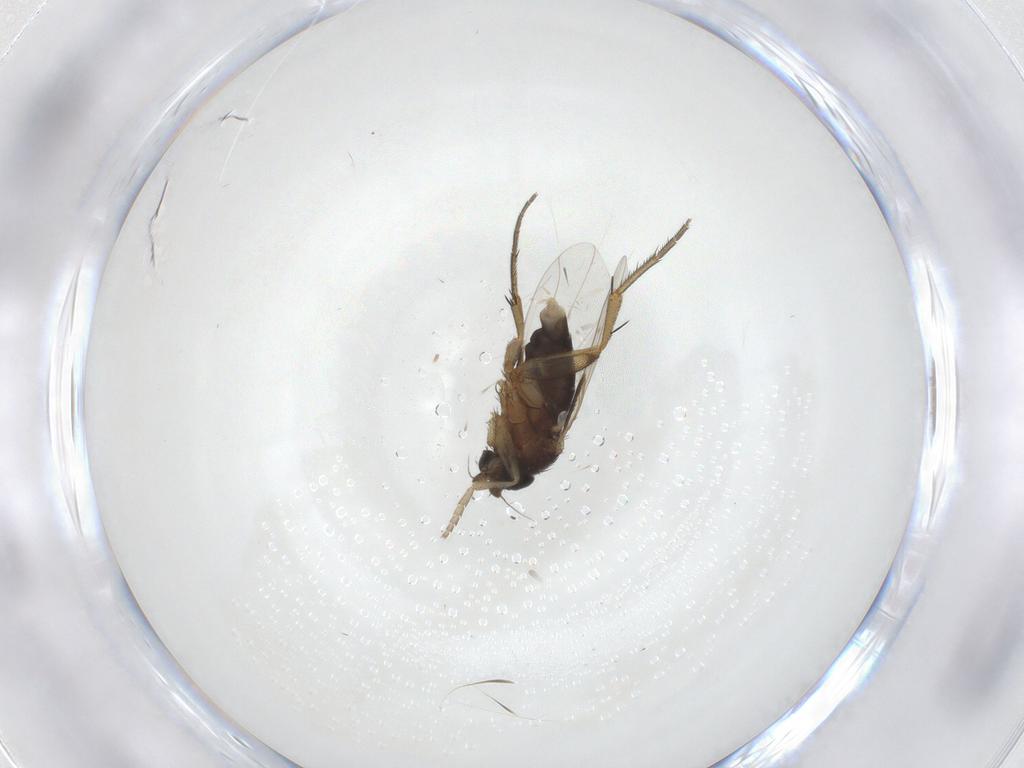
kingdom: Animalia
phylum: Arthropoda
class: Insecta
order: Diptera
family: Phoridae
